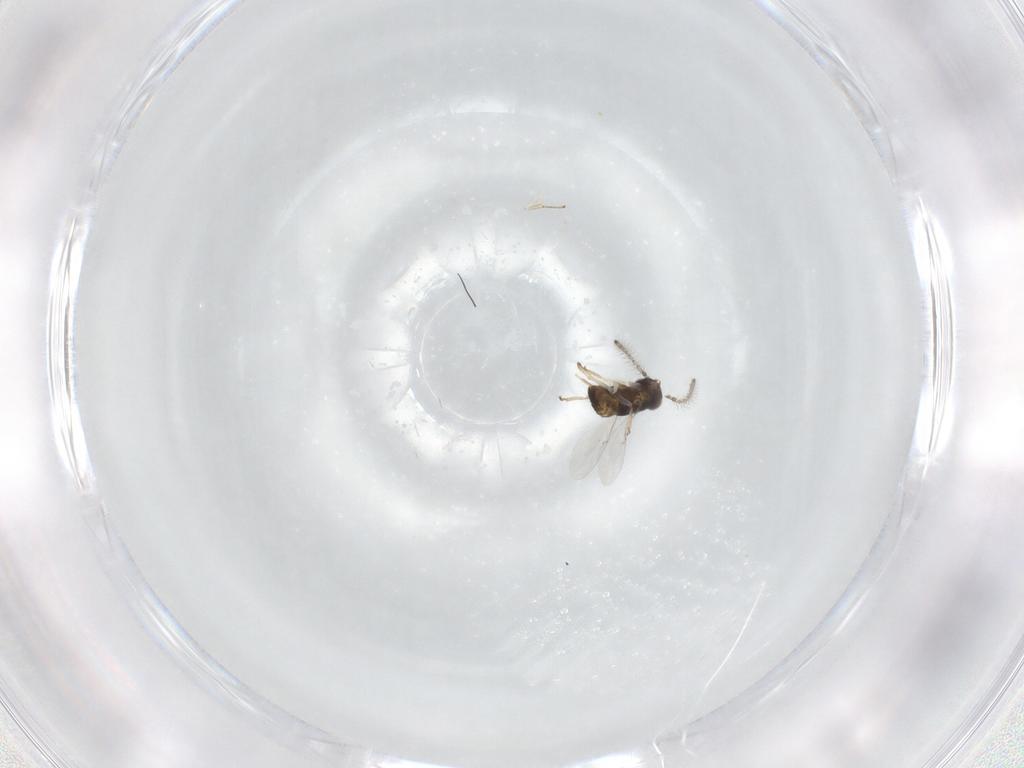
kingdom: Animalia
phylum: Arthropoda
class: Insecta
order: Hymenoptera
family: Encyrtidae
